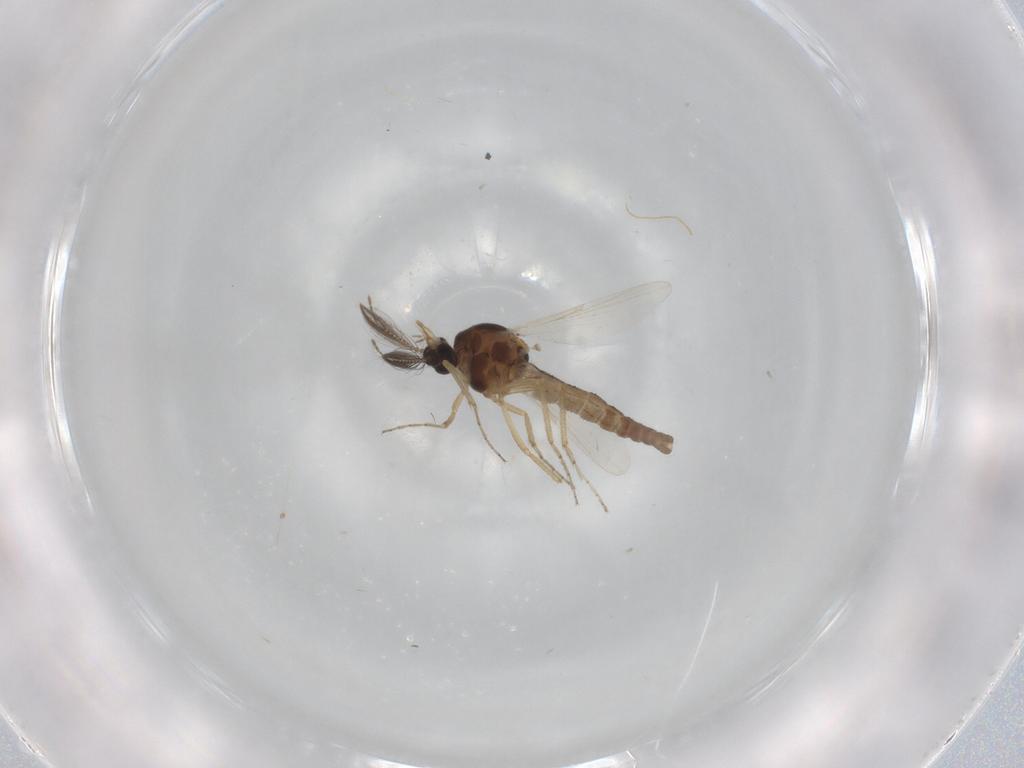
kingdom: Animalia
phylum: Arthropoda
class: Insecta
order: Diptera
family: Ceratopogonidae
